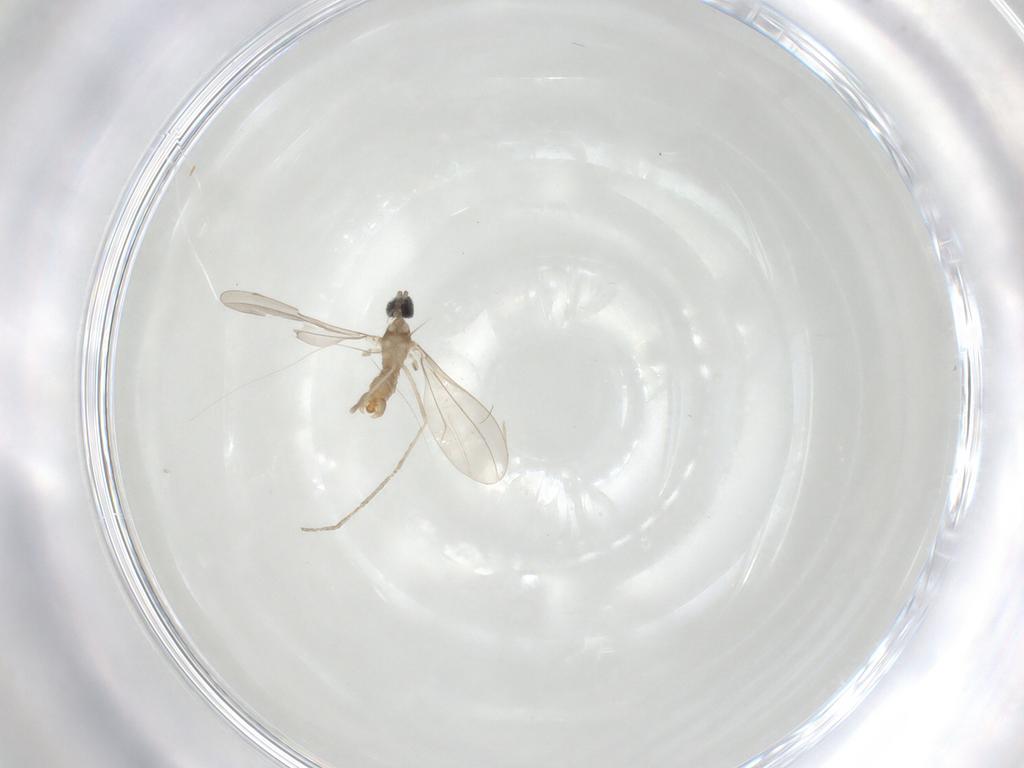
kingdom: Animalia
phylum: Arthropoda
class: Insecta
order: Diptera
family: Cecidomyiidae
